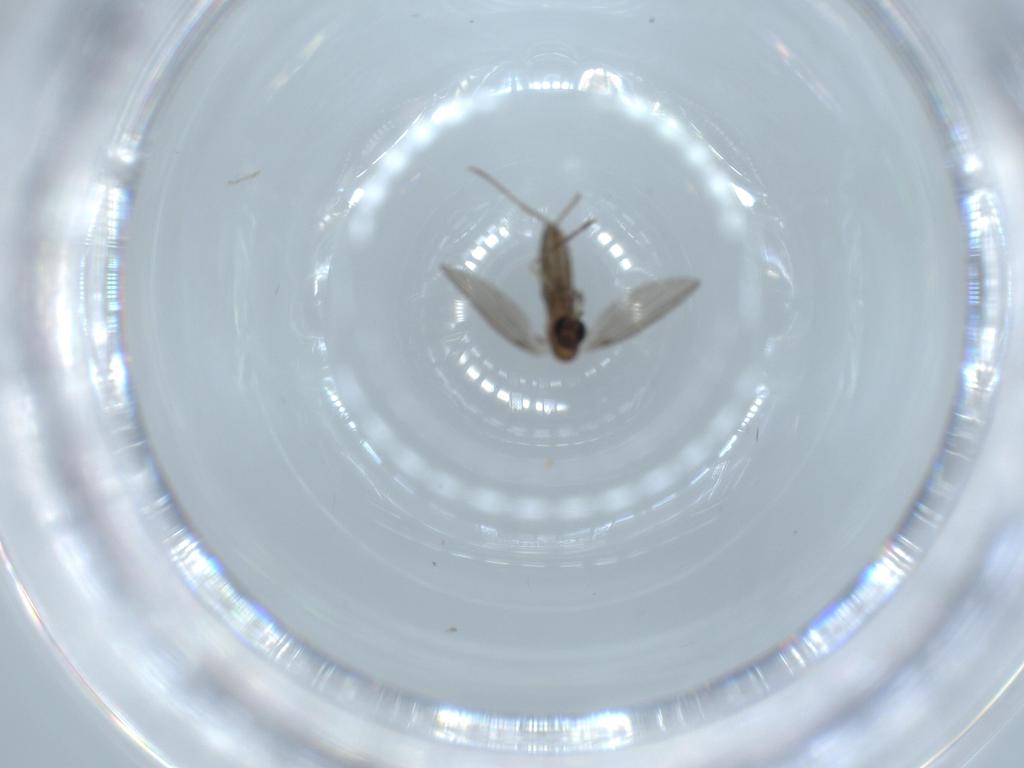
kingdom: Animalia
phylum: Arthropoda
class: Insecta
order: Diptera
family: Psychodidae
